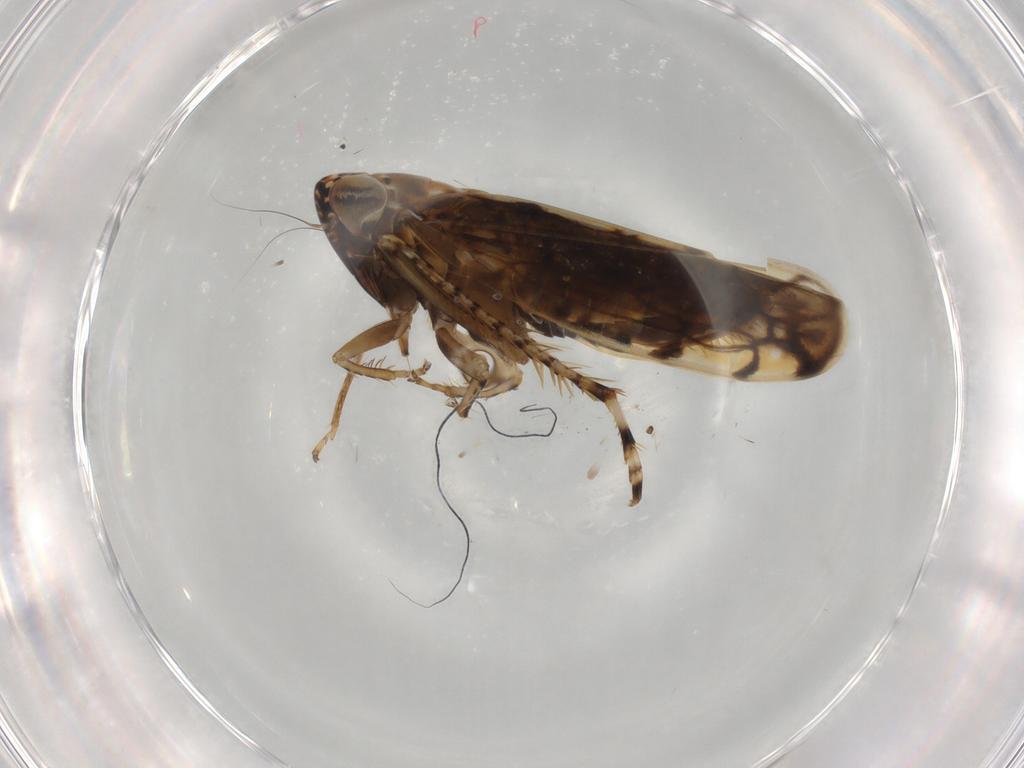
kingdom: Animalia
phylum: Arthropoda
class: Insecta
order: Hemiptera
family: Cicadellidae
